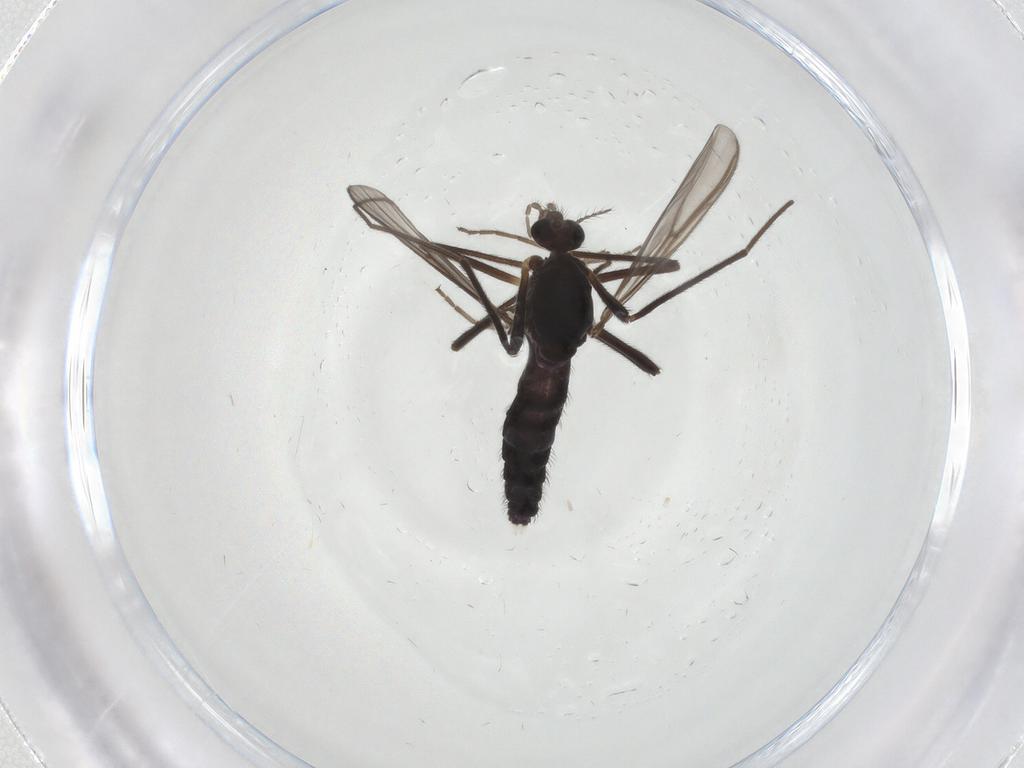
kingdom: Animalia
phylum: Arthropoda
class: Insecta
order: Diptera
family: Chironomidae
